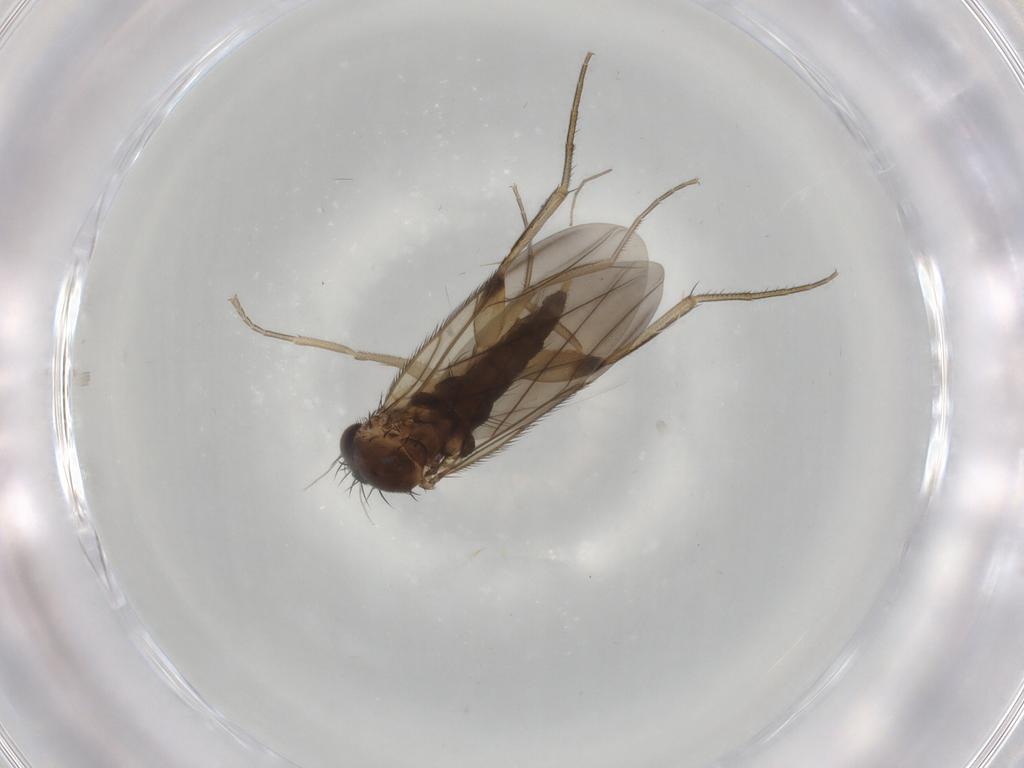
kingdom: Animalia
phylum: Arthropoda
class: Insecta
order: Diptera
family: Phoridae
